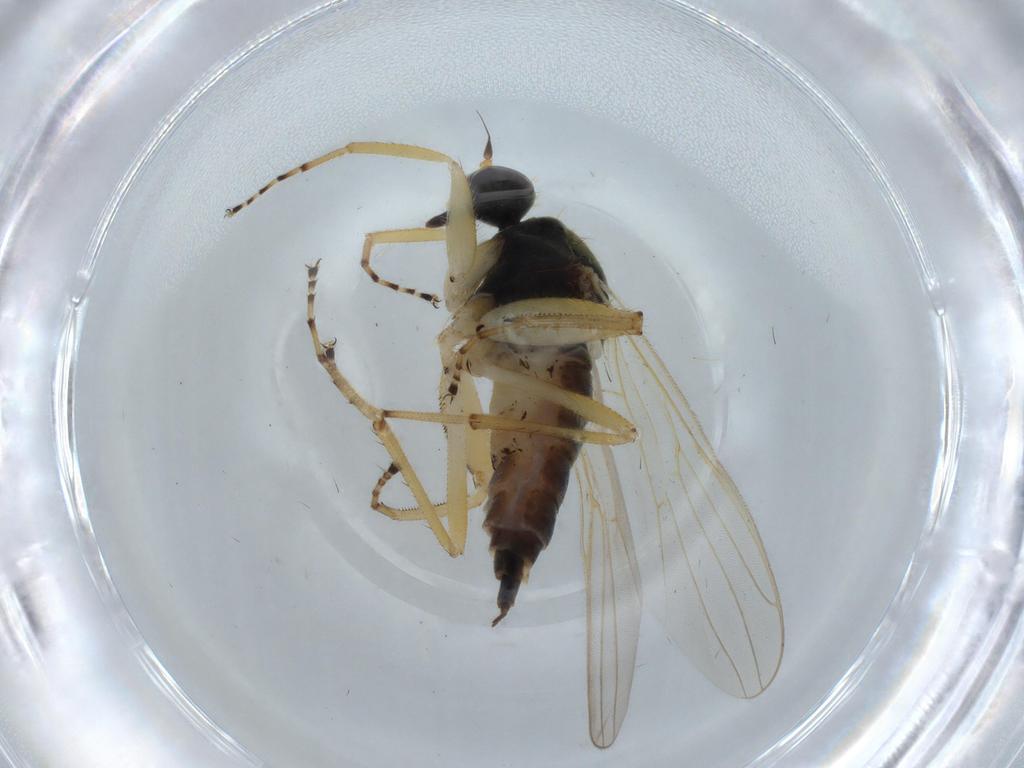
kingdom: Animalia
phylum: Arthropoda
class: Insecta
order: Diptera
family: Hybotidae
